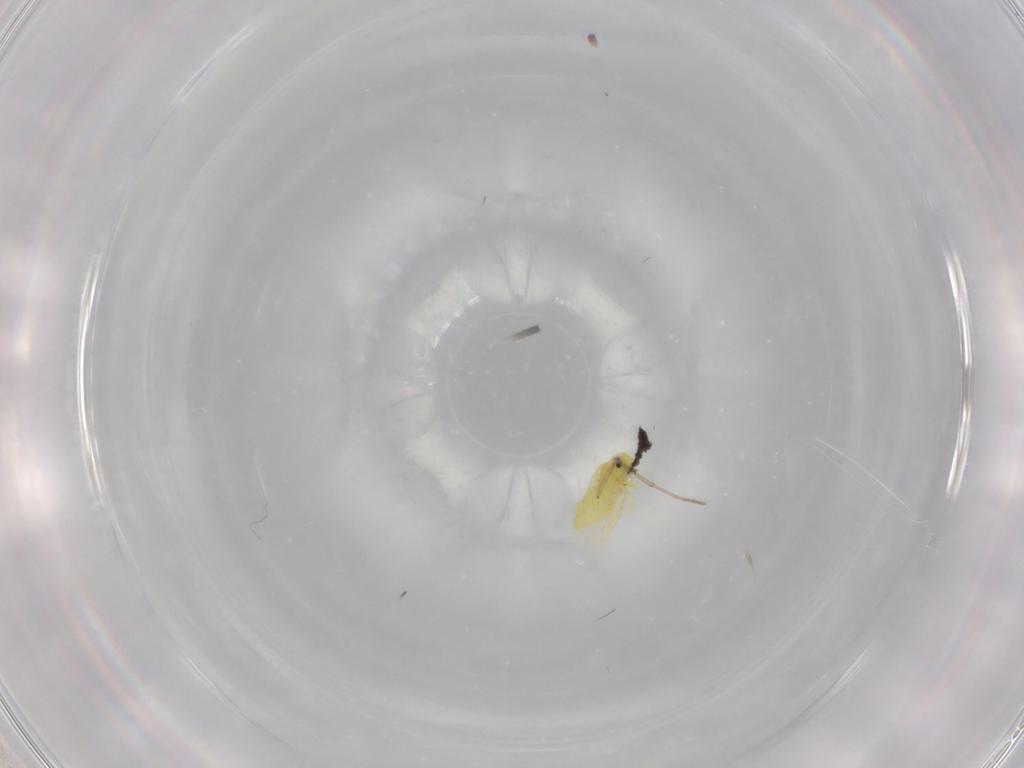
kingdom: Animalia
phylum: Arthropoda
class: Insecta
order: Hemiptera
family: Aleyrodidae
